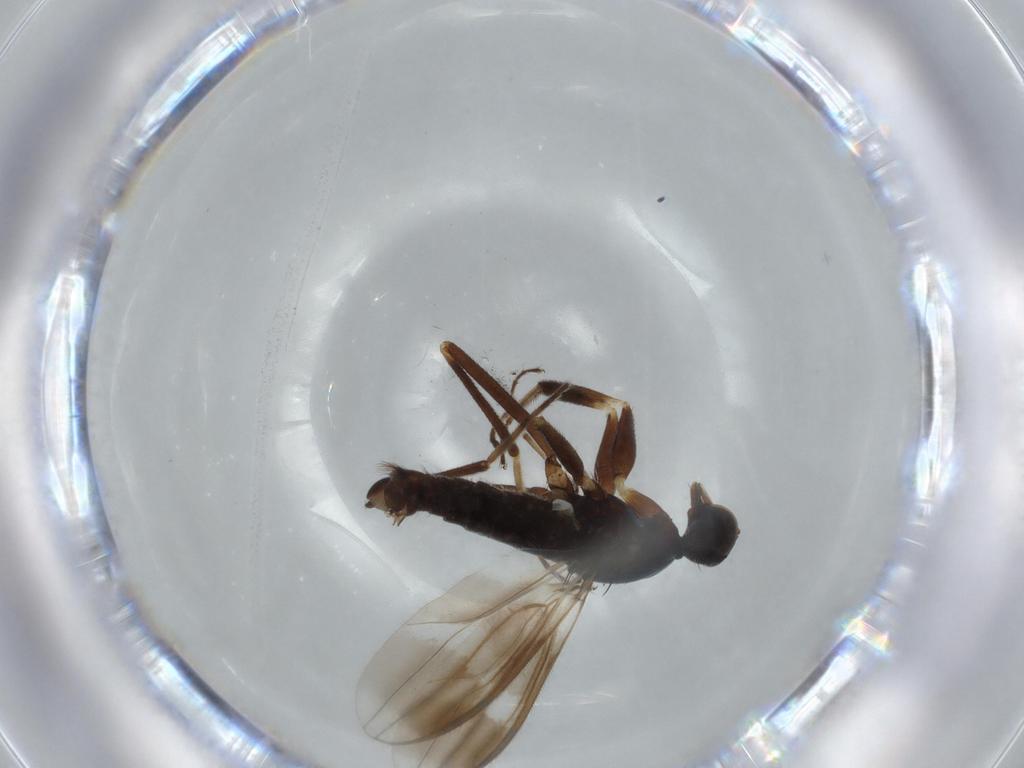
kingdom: Animalia
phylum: Arthropoda
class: Insecta
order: Diptera
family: Hybotidae
